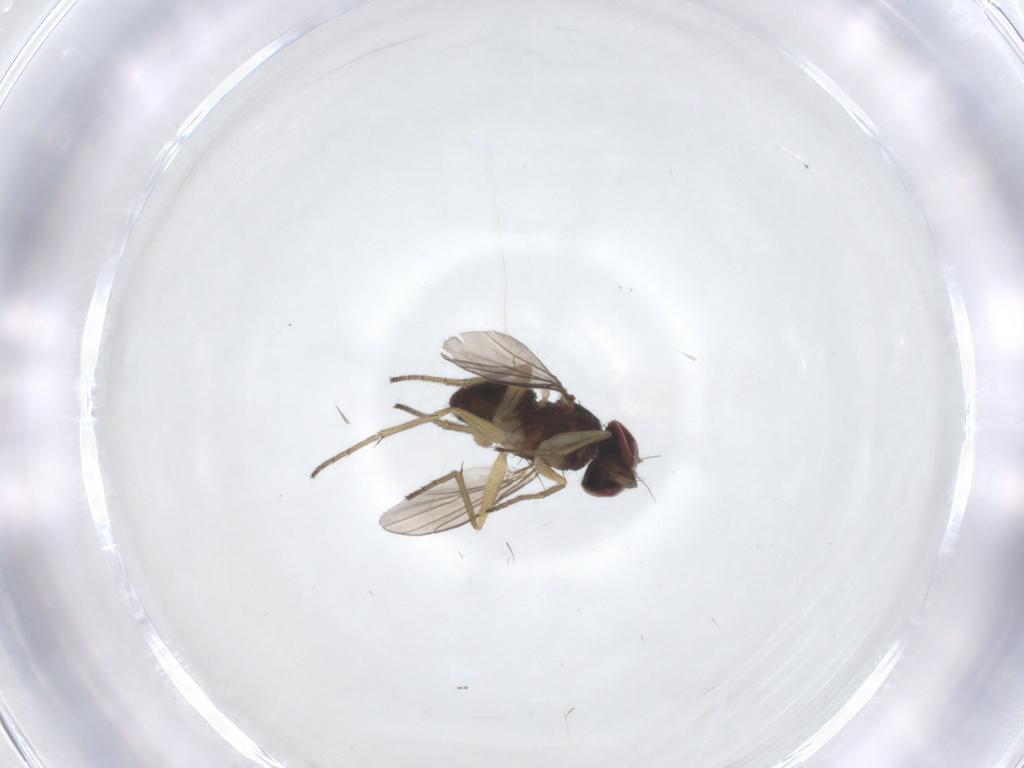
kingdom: Animalia
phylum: Arthropoda
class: Insecta
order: Diptera
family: Dolichopodidae
